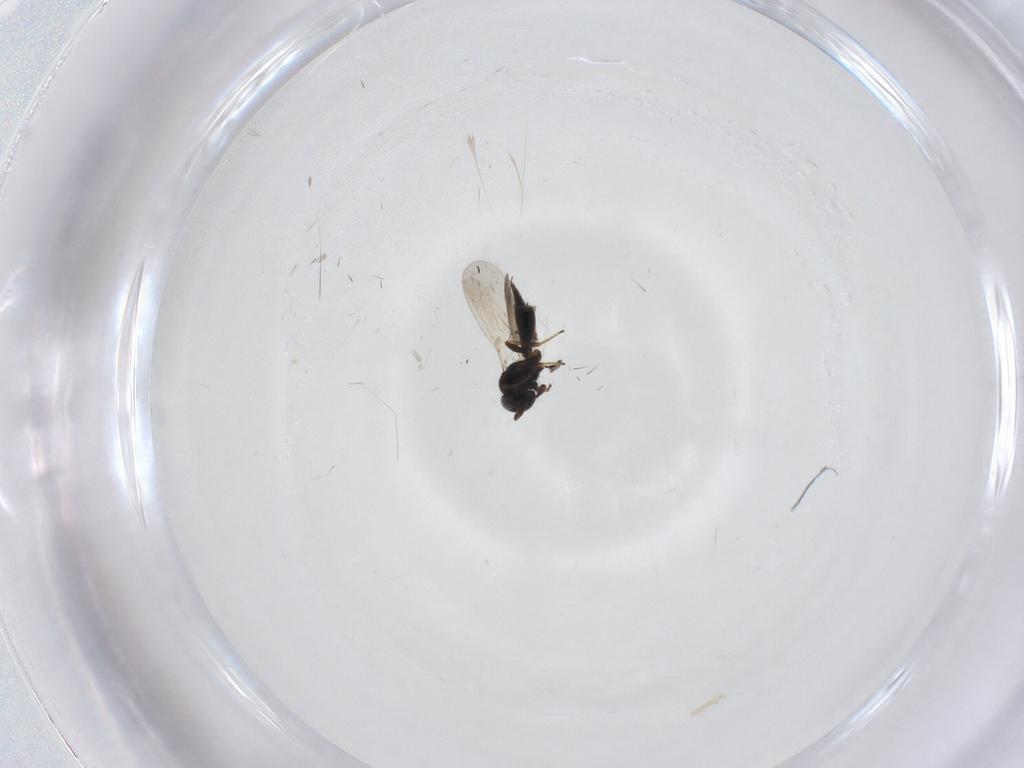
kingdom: Animalia
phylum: Arthropoda
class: Insecta
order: Hymenoptera
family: Platygastridae
